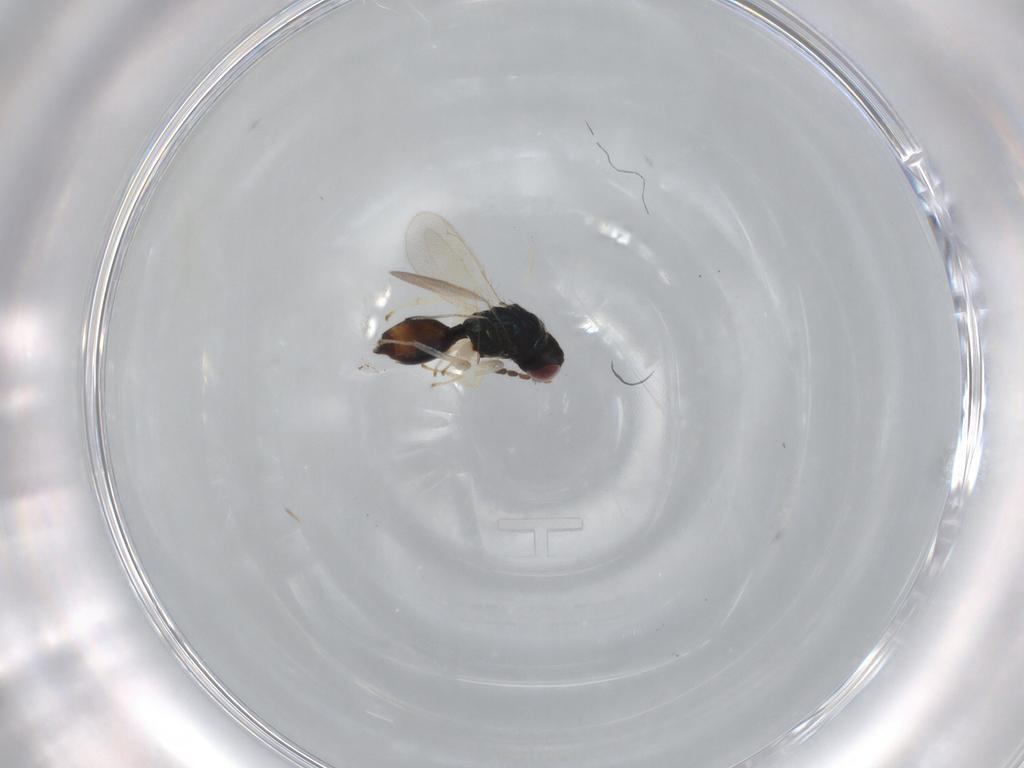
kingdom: Animalia
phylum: Arthropoda
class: Insecta
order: Hymenoptera
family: Eulophidae
